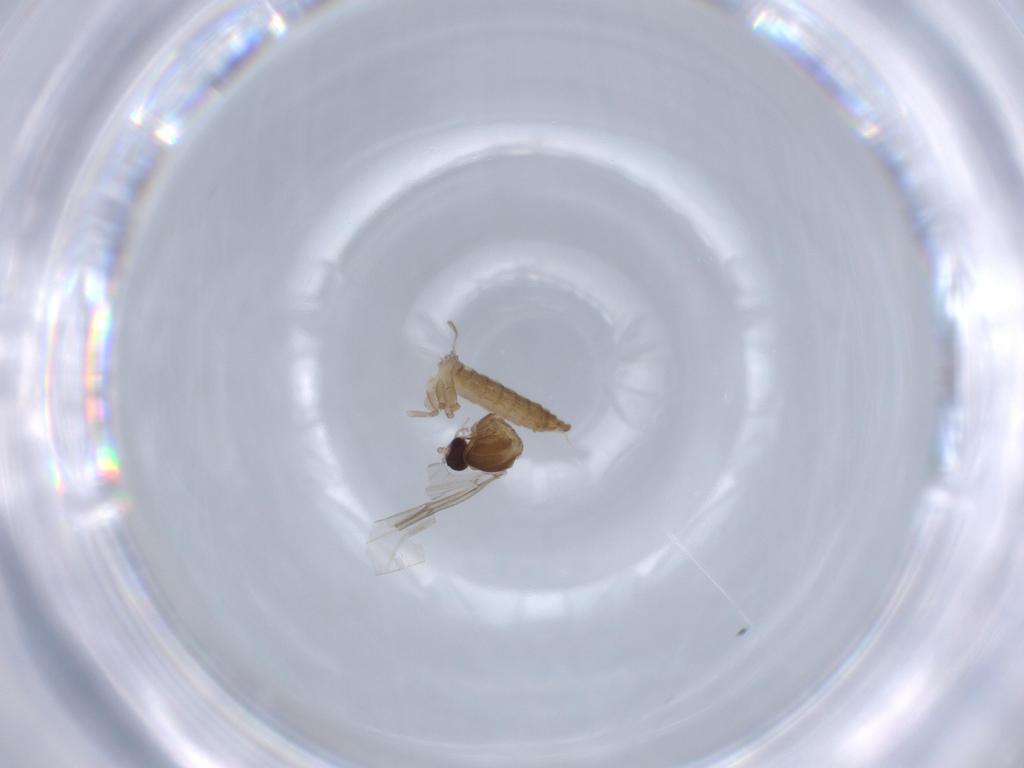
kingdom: Animalia
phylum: Arthropoda
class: Insecta
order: Diptera
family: Cecidomyiidae
